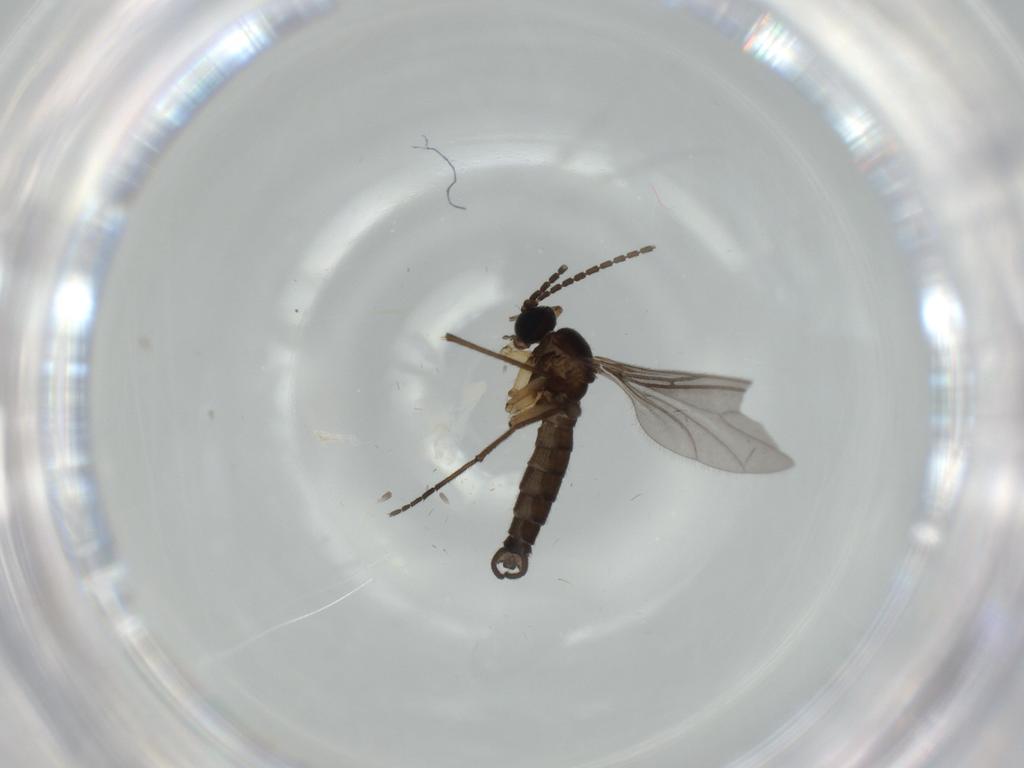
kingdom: Animalia
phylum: Arthropoda
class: Insecta
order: Diptera
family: Sciaridae
